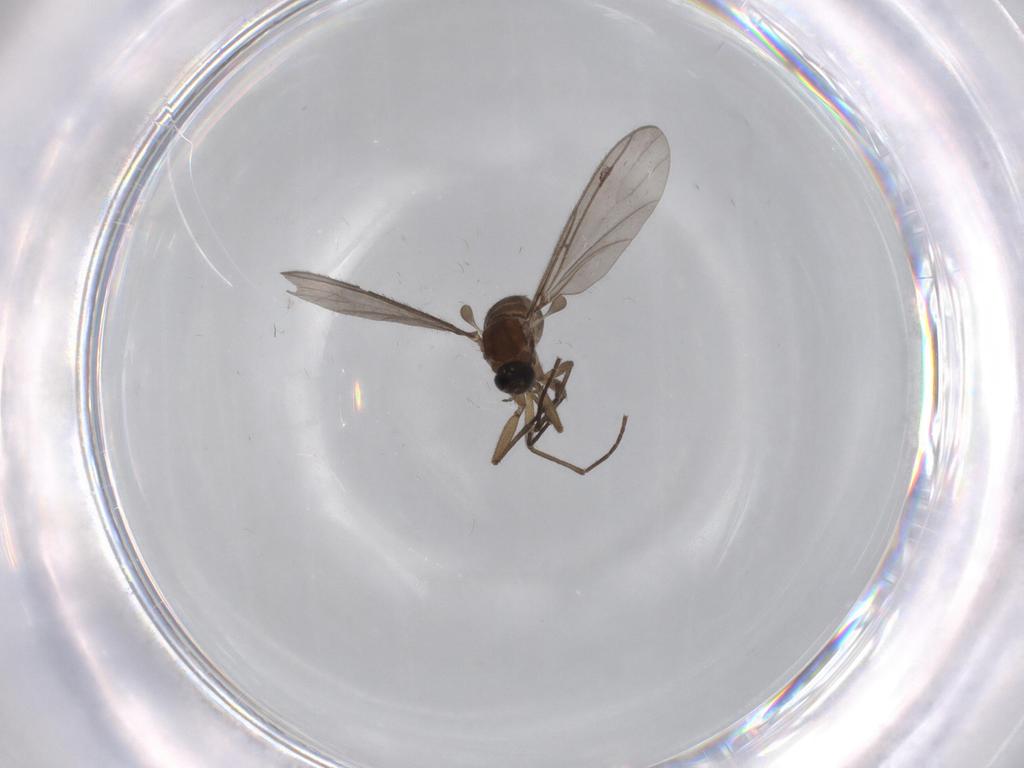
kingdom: Animalia
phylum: Arthropoda
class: Insecta
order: Diptera
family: Sciaridae
